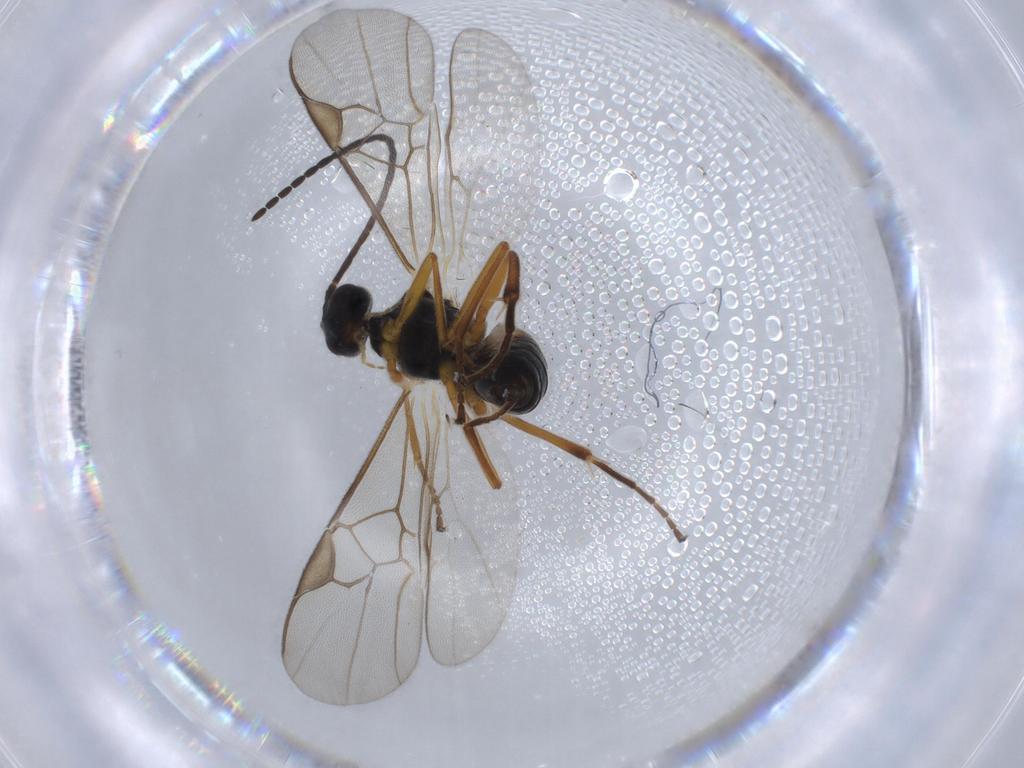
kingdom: Animalia
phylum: Arthropoda
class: Insecta
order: Hymenoptera
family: Braconidae
